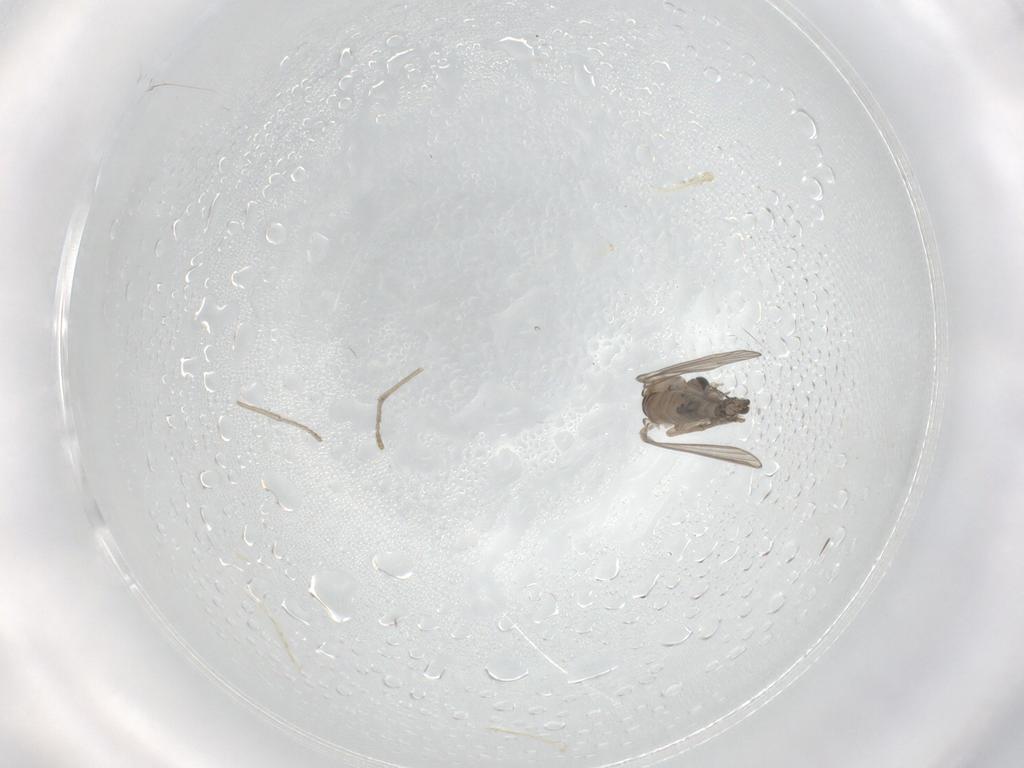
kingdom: Animalia
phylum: Arthropoda
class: Insecta
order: Diptera
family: Psychodidae
